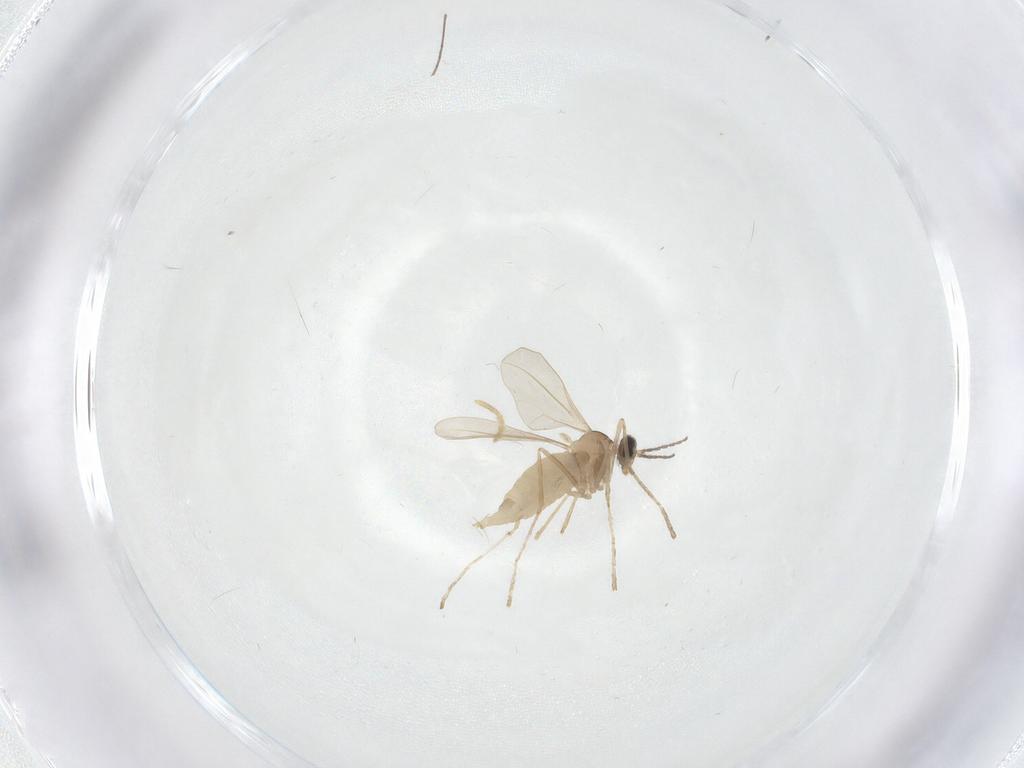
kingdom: Animalia
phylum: Arthropoda
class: Insecta
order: Diptera
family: Cecidomyiidae
